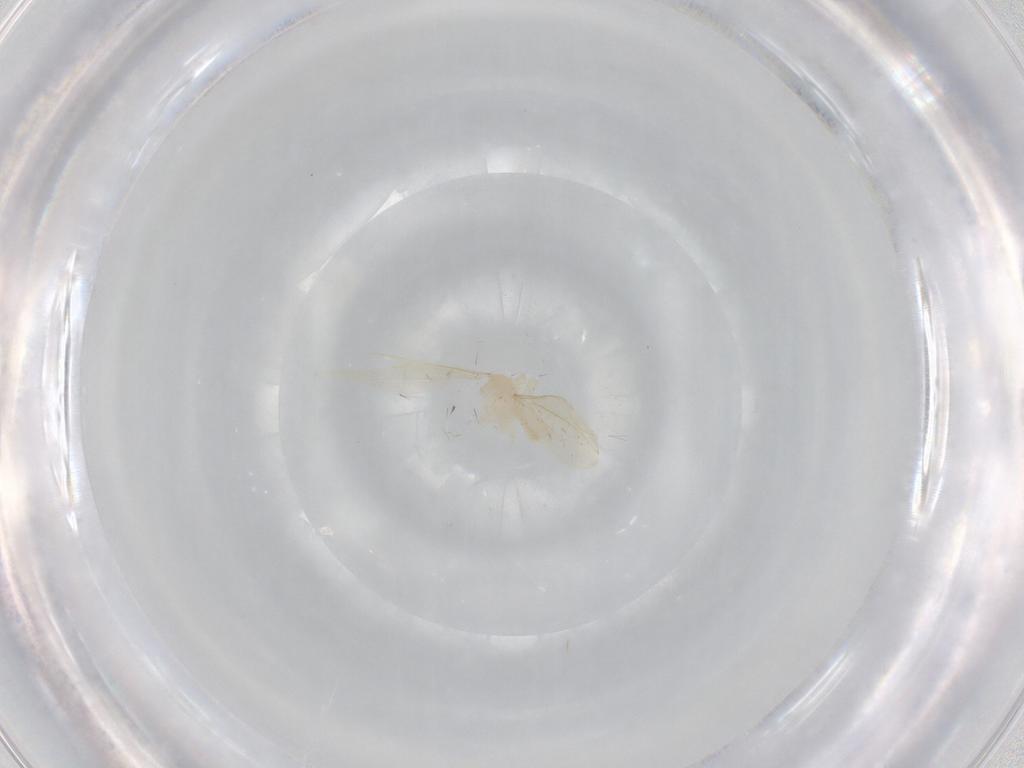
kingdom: Animalia
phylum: Arthropoda
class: Insecta
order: Diptera
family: Cecidomyiidae
